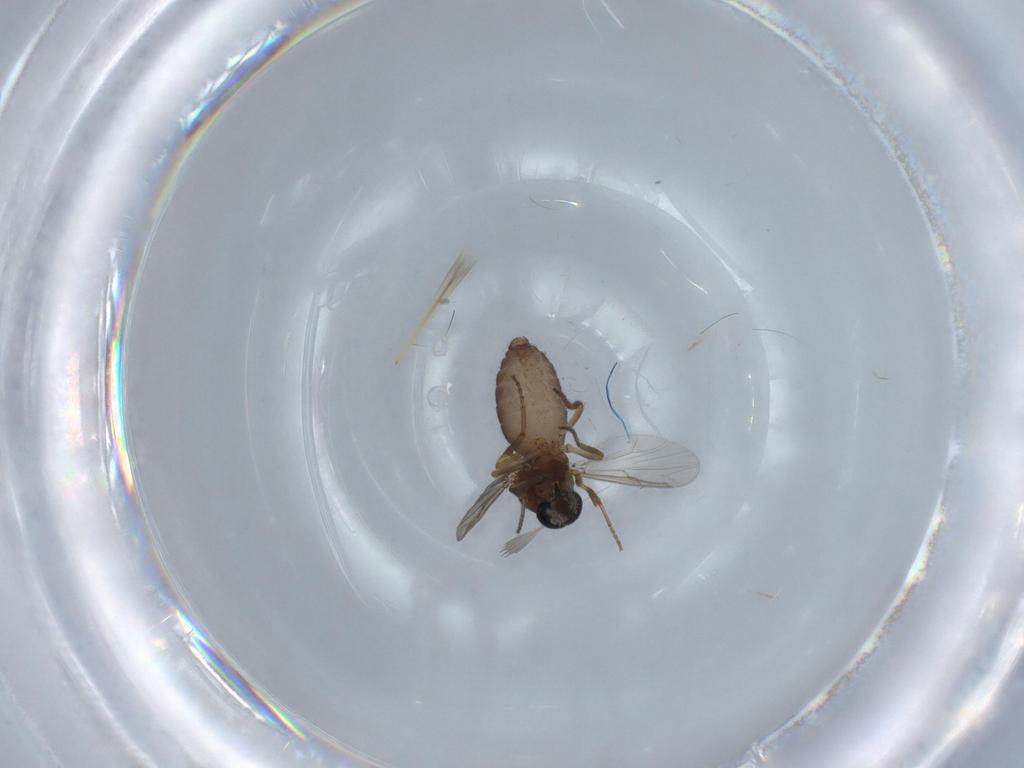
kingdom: Animalia
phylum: Arthropoda
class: Insecta
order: Diptera
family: Ceratopogonidae
